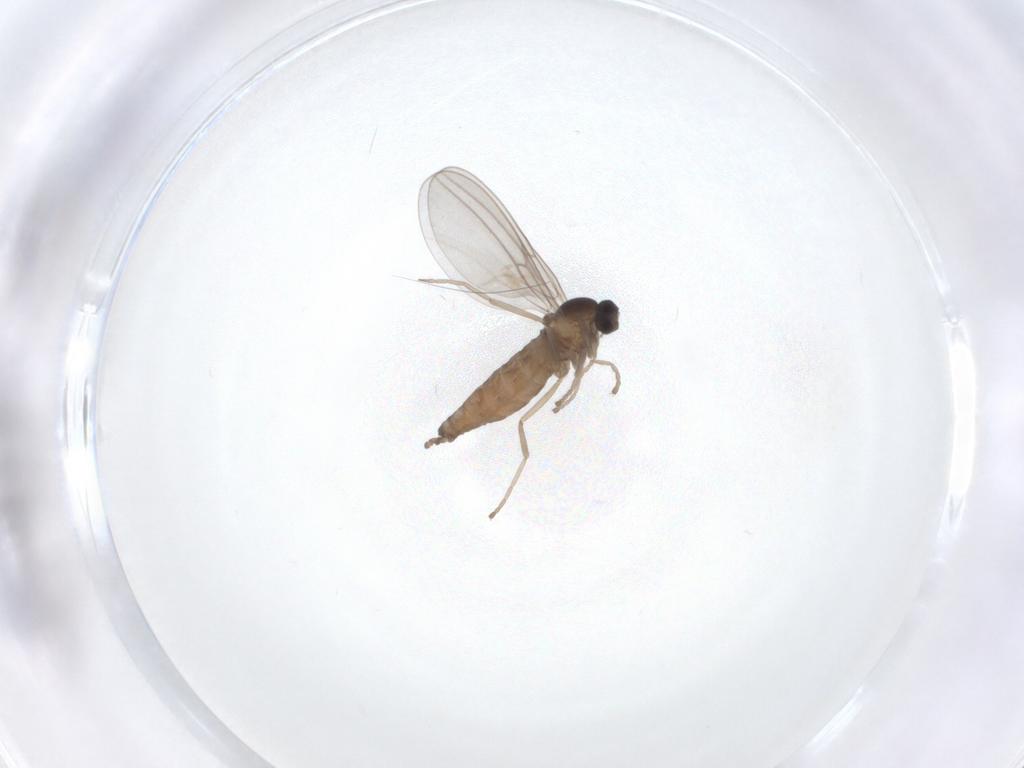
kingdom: Animalia
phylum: Arthropoda
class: Insecta
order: Diptera
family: Cecidomyiidae
